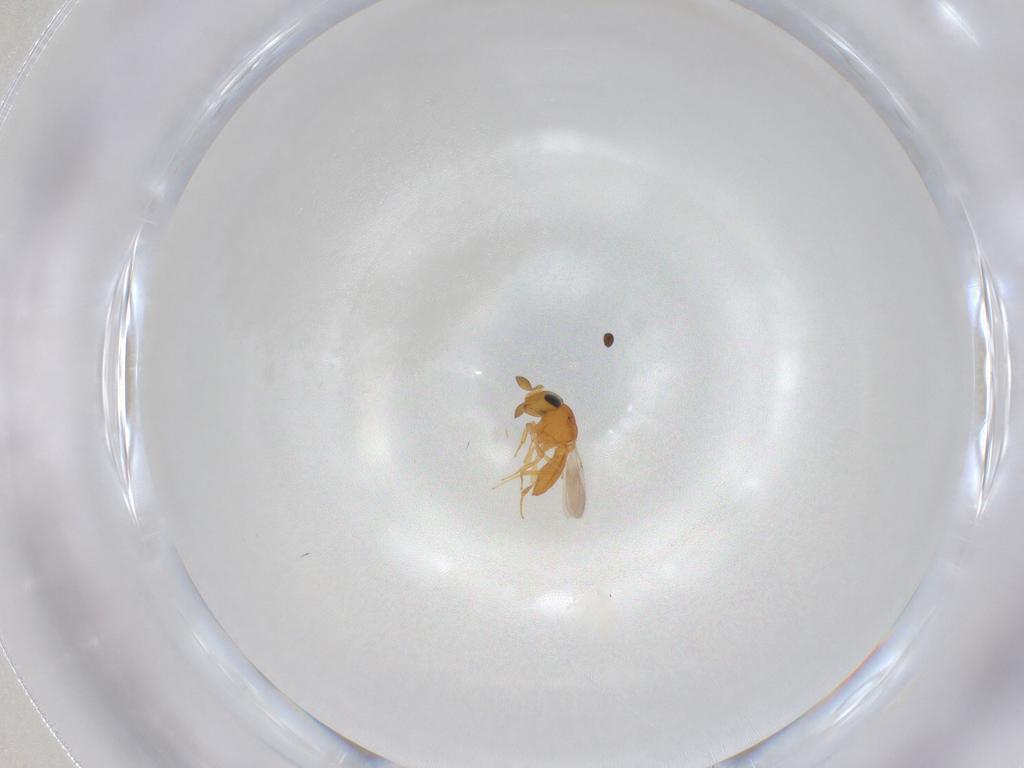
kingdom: Animalia
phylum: Arthropoda
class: Insecta
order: Hymenoptera
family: Scelionidae
